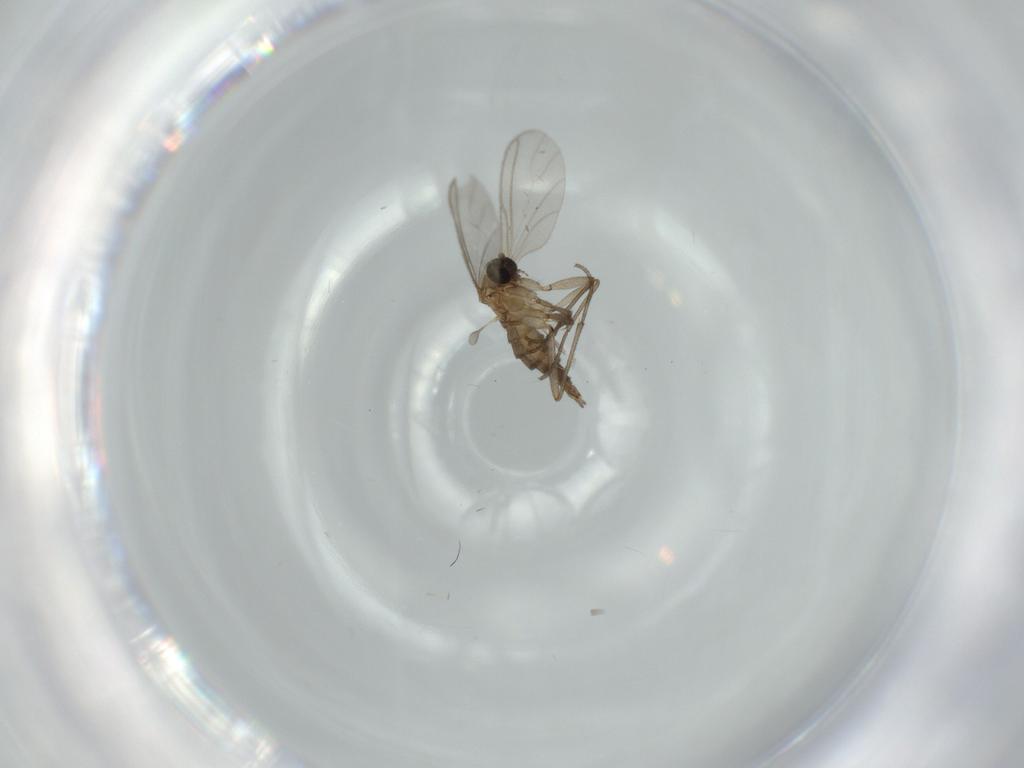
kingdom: Animalia
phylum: Arthropoda
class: Insecta
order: Diptera
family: Sciaridae
